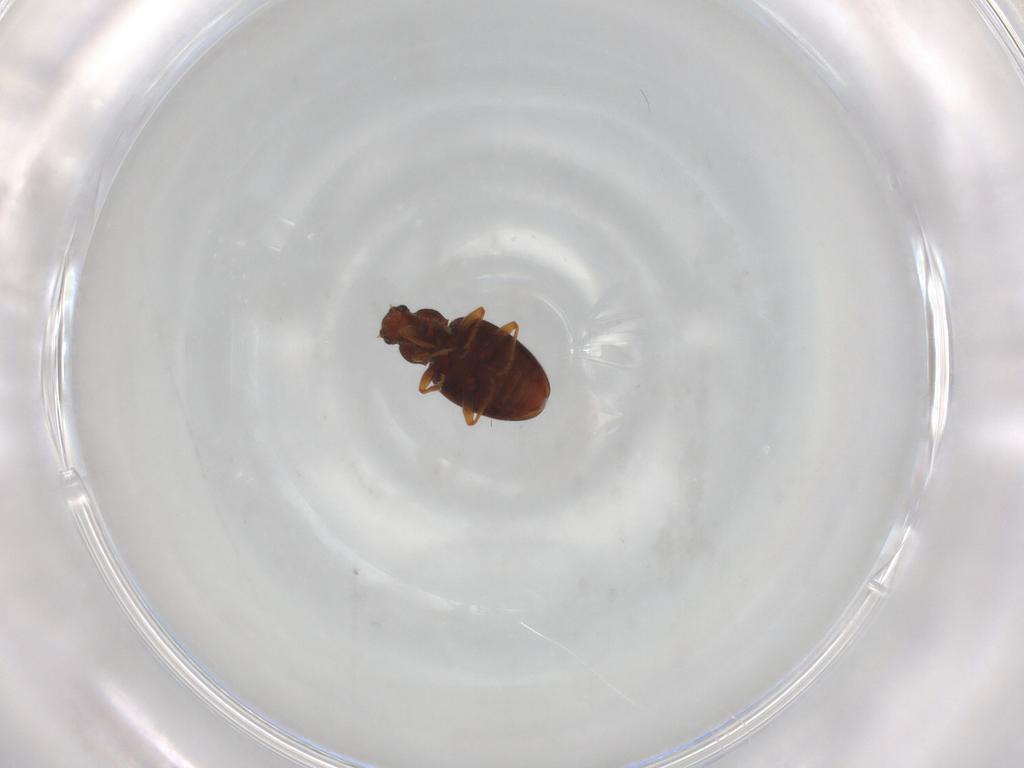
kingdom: Animalia
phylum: Arthropoda
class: Insecta
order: Coleoptera
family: Latridiidae
